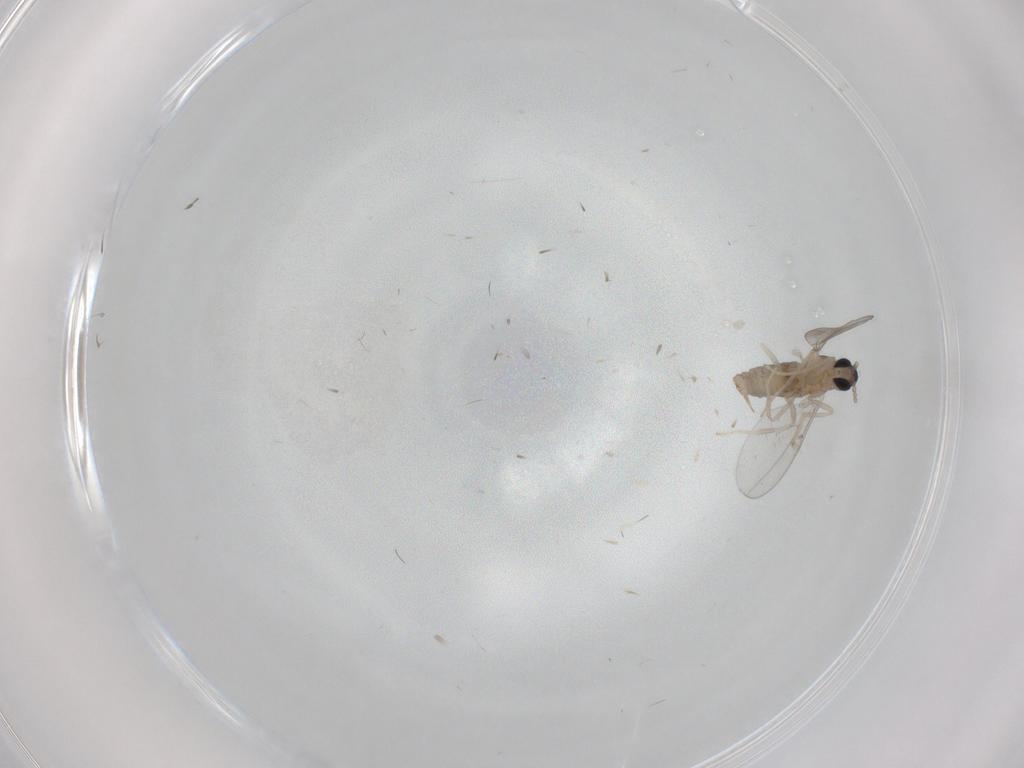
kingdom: Animalia
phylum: Arthropoda
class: Insecta
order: Diptera
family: Cecidomyiidae
